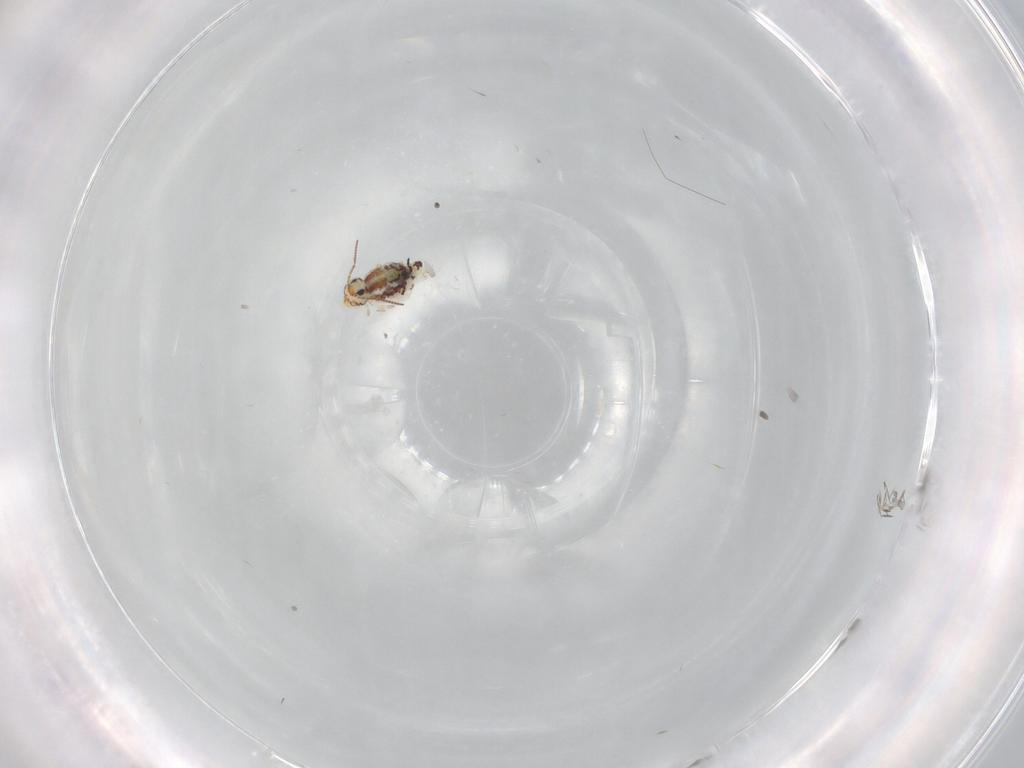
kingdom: Animalia
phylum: Arthropoda
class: Collembola
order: Symphypleona
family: Bourletiellidae
